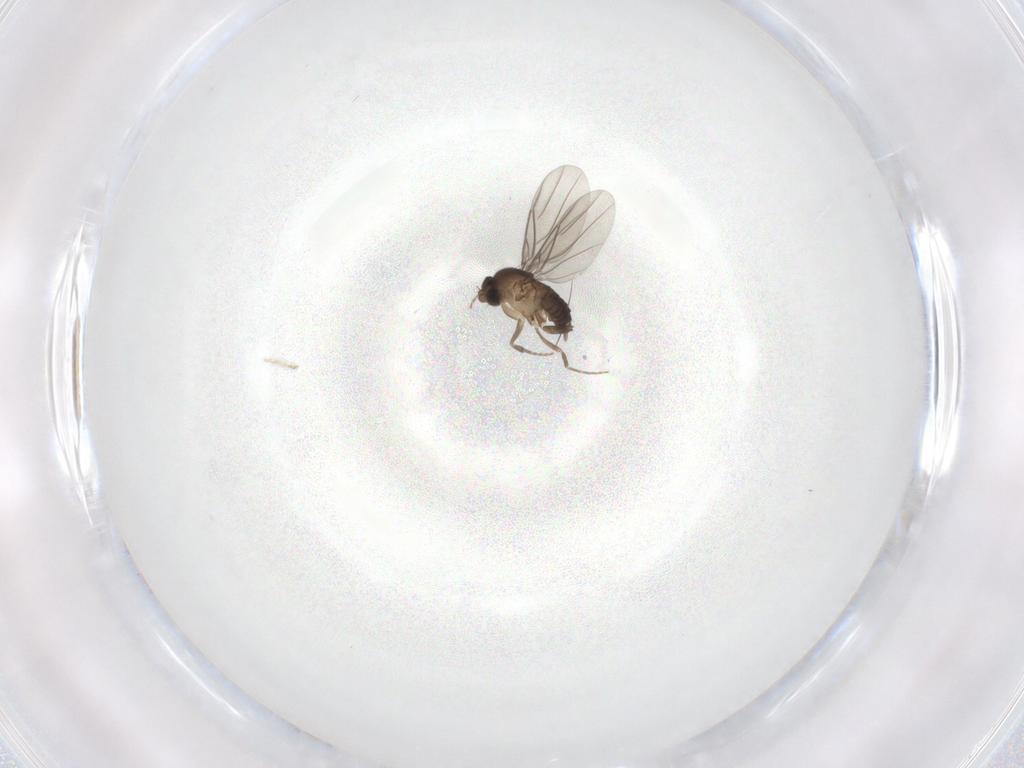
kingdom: Animalia
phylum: Arthropoda
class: Insecta
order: Diptera
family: Phoridae
